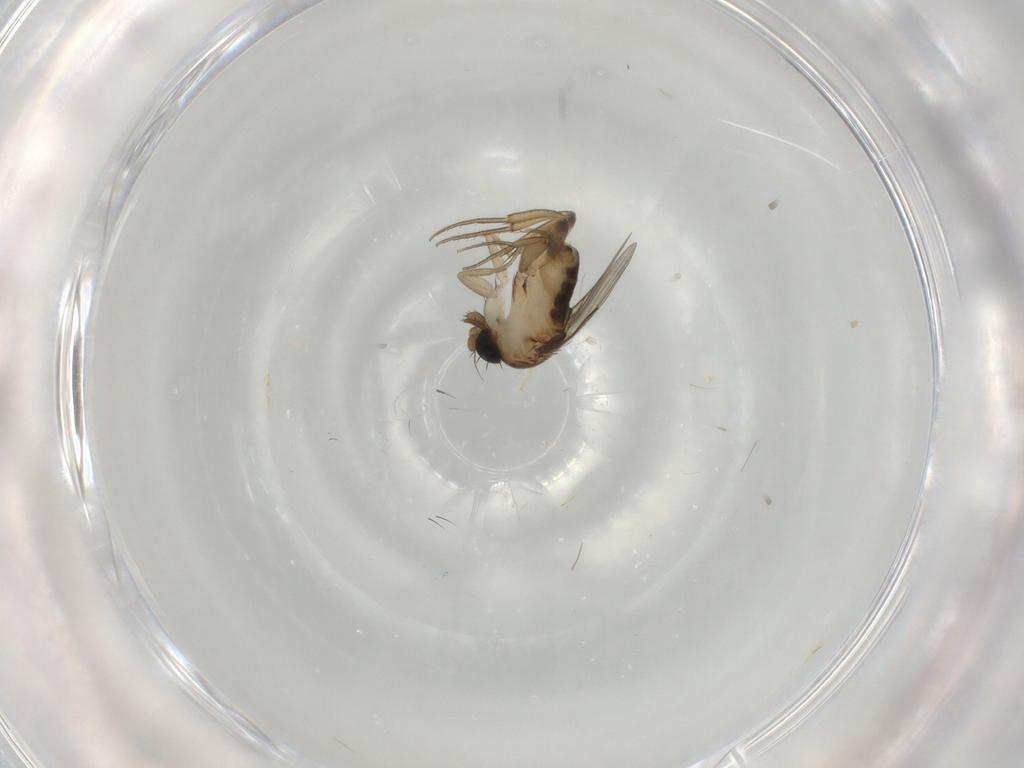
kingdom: Animalia
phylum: Arthropoda
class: Insecta
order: Diptera
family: Phoridae
